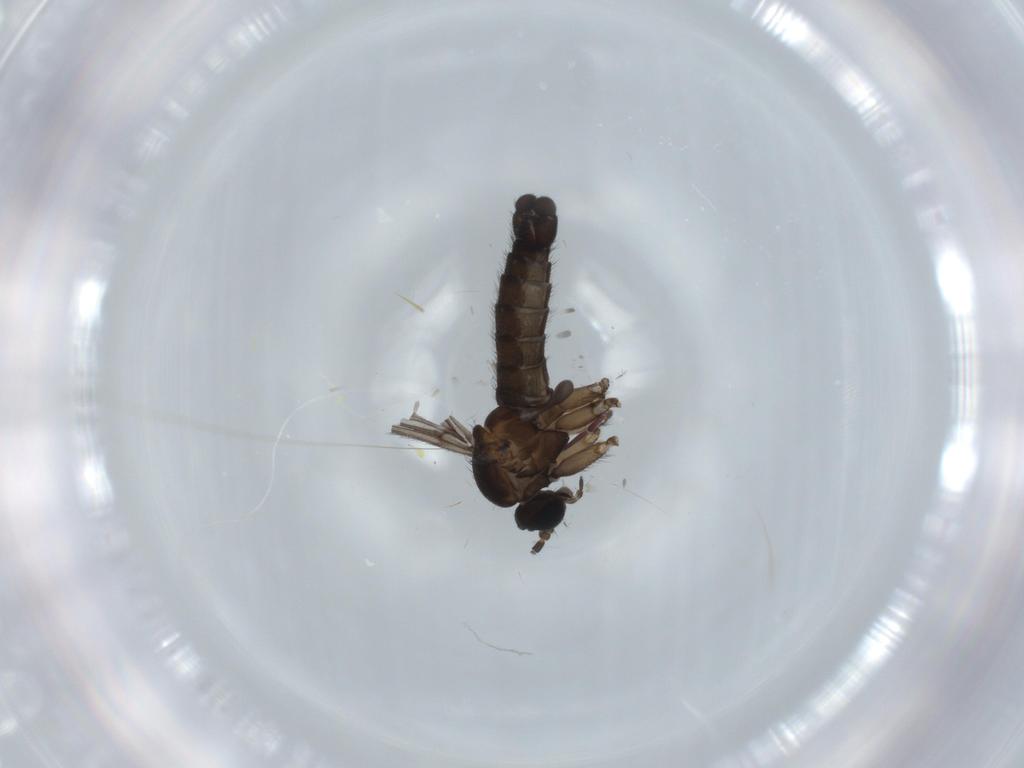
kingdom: Animalia
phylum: Arthropoda
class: Insecta
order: Diptera
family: Sciaridae
